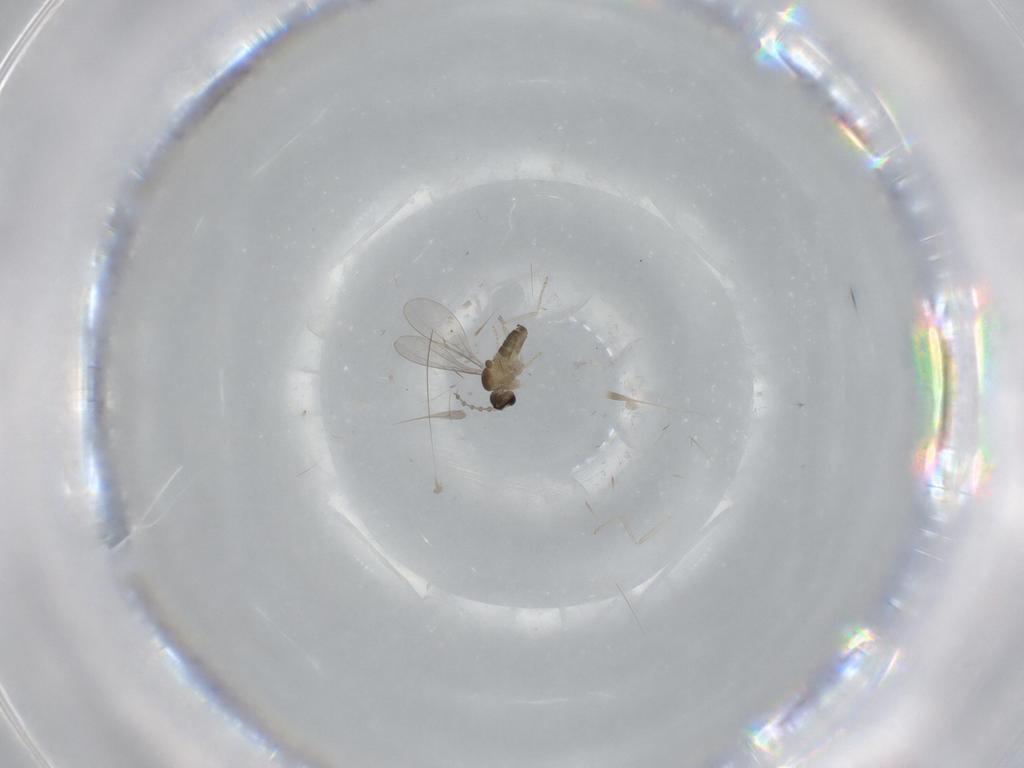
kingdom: Animalia
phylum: Arthropoda
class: Insecta
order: Diptera
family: Cecidomyiidae
